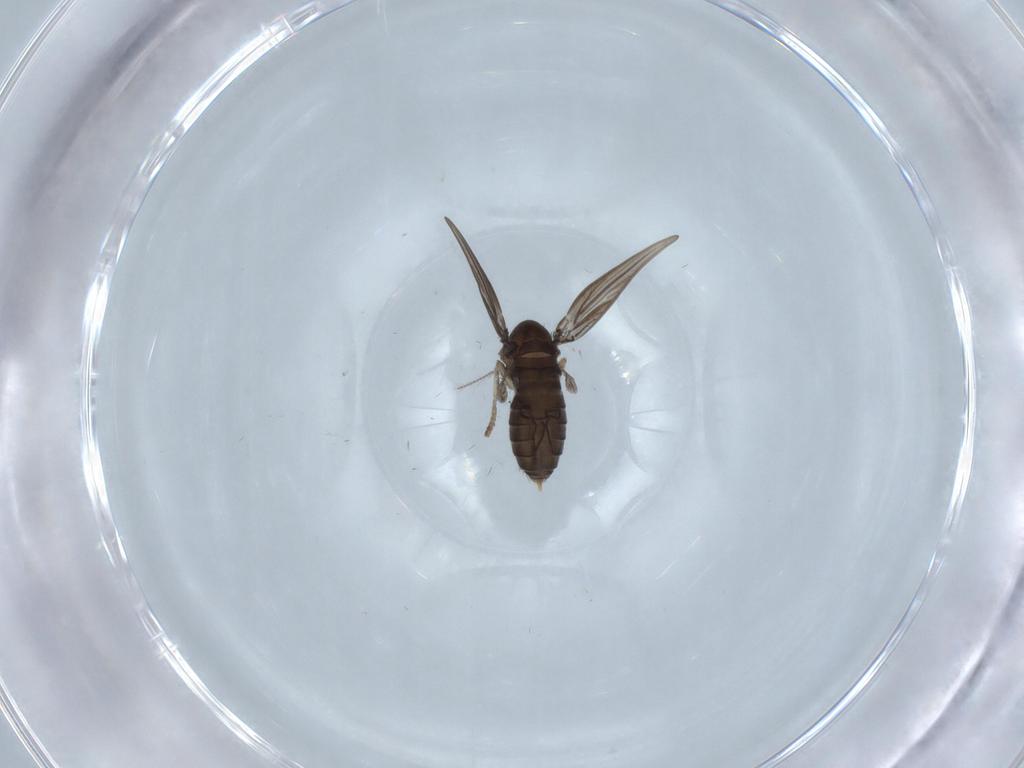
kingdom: Animalia
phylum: Arthropoda
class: Insecta
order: Diptera
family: Psychodidae
